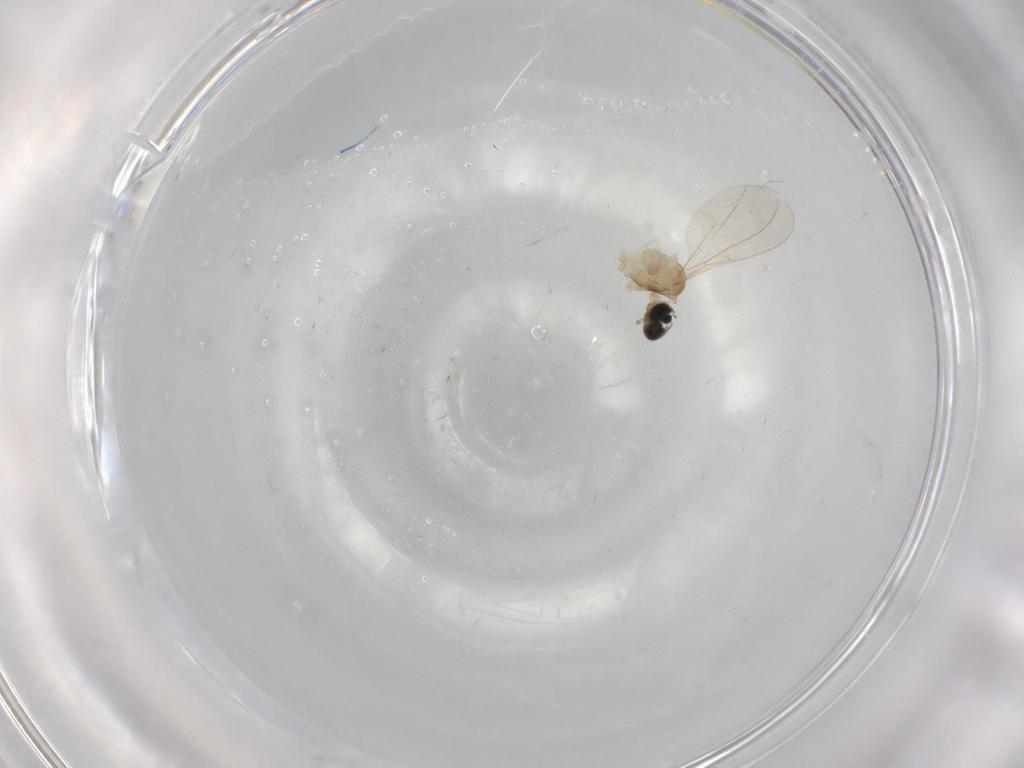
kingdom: Animalia
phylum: Arthropoda
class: Insecta
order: Diptera
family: Cecidomyiidae
